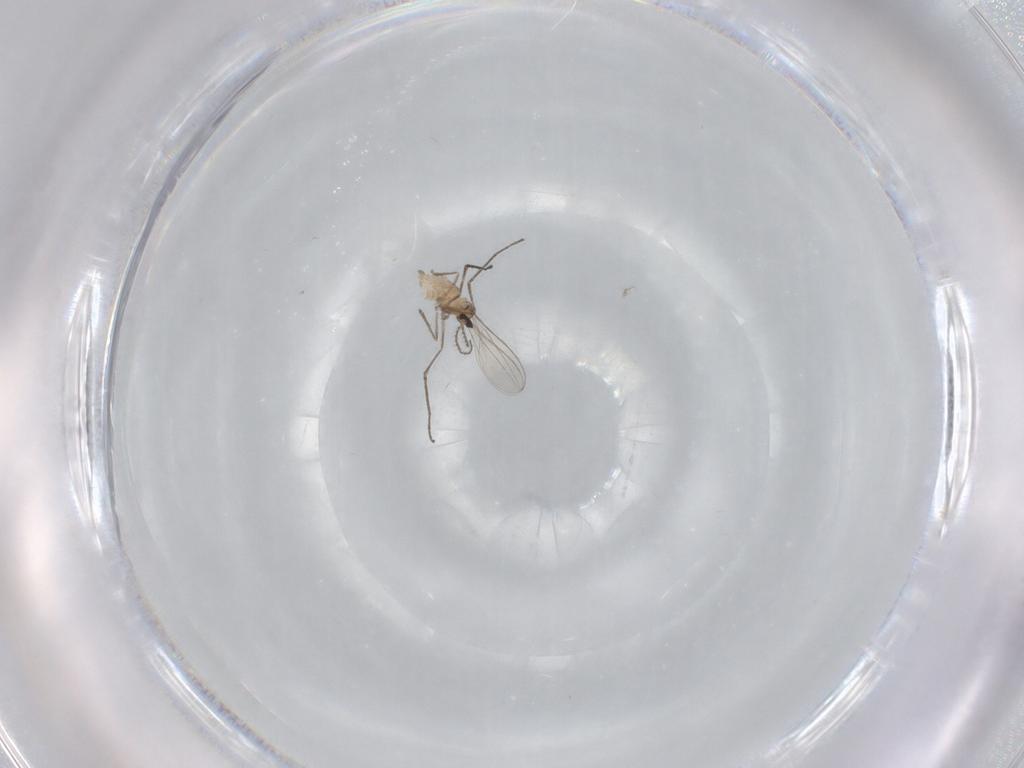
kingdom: Animalia
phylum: Arthropoda
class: Insecta
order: Diptera
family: Cecidomyiidae
